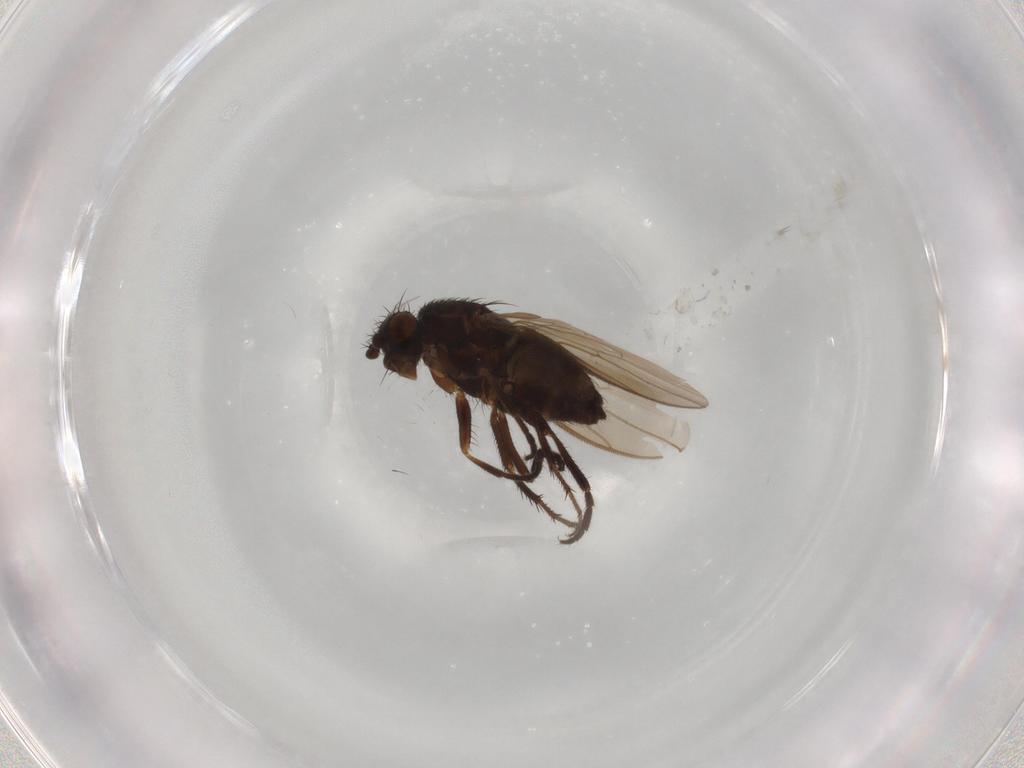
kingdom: Animalia
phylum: Arthropoda
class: Insecta
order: Diptera
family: Sphaeroceridae
